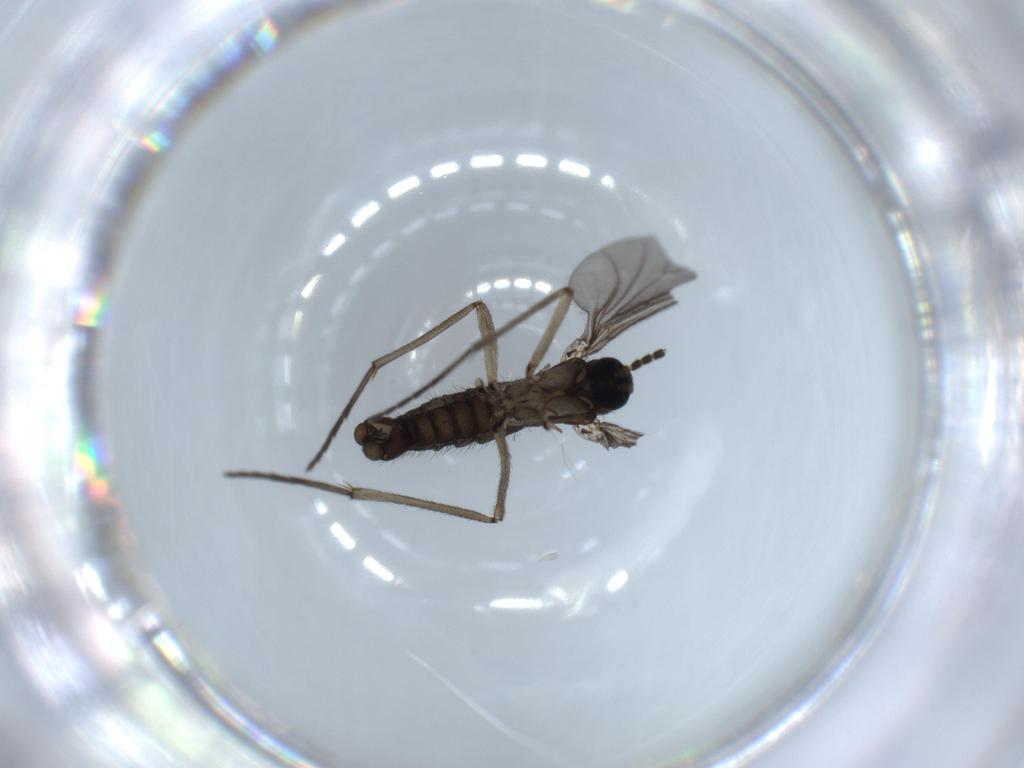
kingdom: Animalia
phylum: Arthropoda
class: Insecta
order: Diptera
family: Sciaridae
